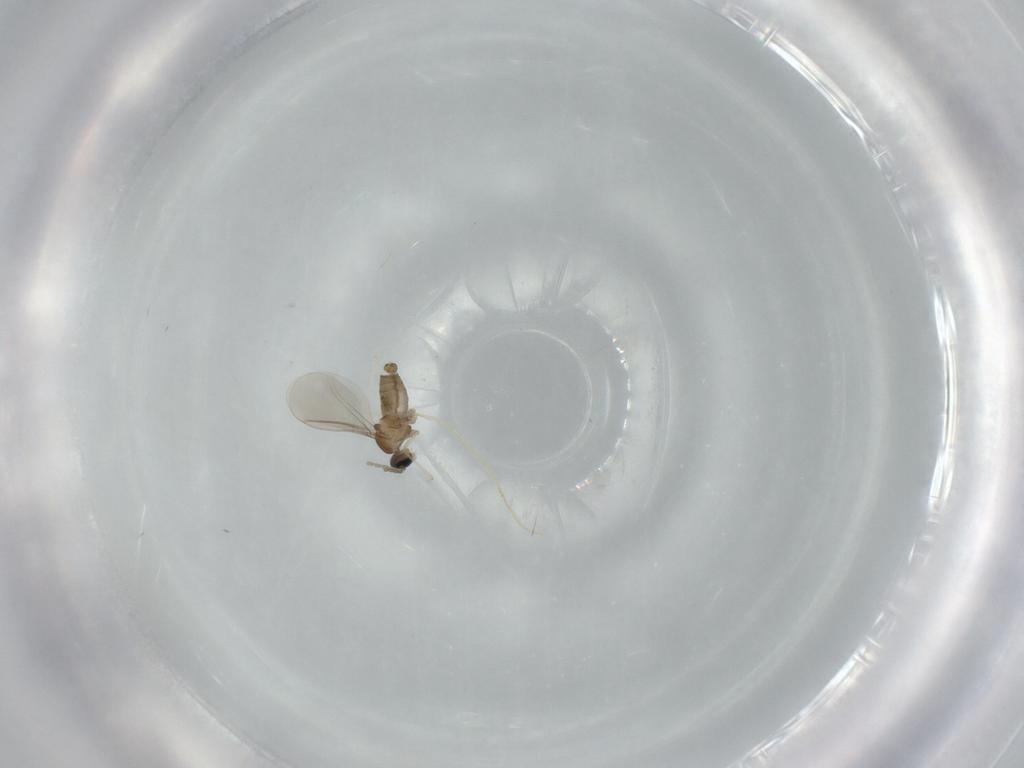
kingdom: Animalia
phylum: Arthropoda
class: Insecta
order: Diptera
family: Cecidomyiidae
